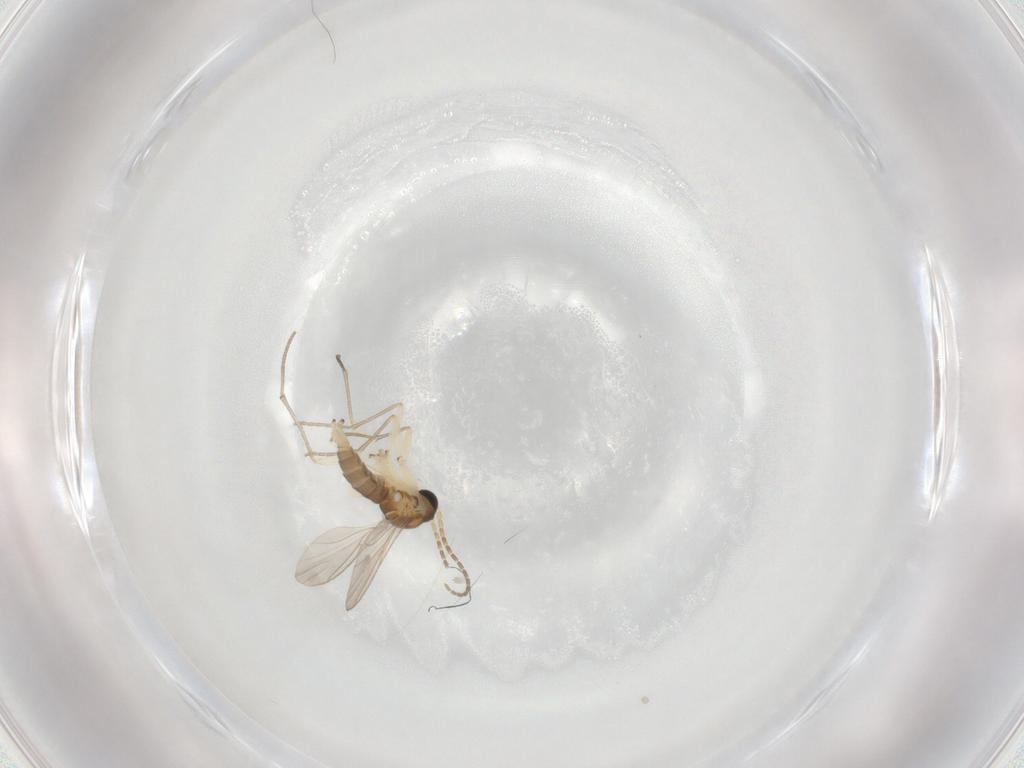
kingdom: Animalia
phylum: Arthropoda
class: Insecta
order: Diptera
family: Sciaridae
